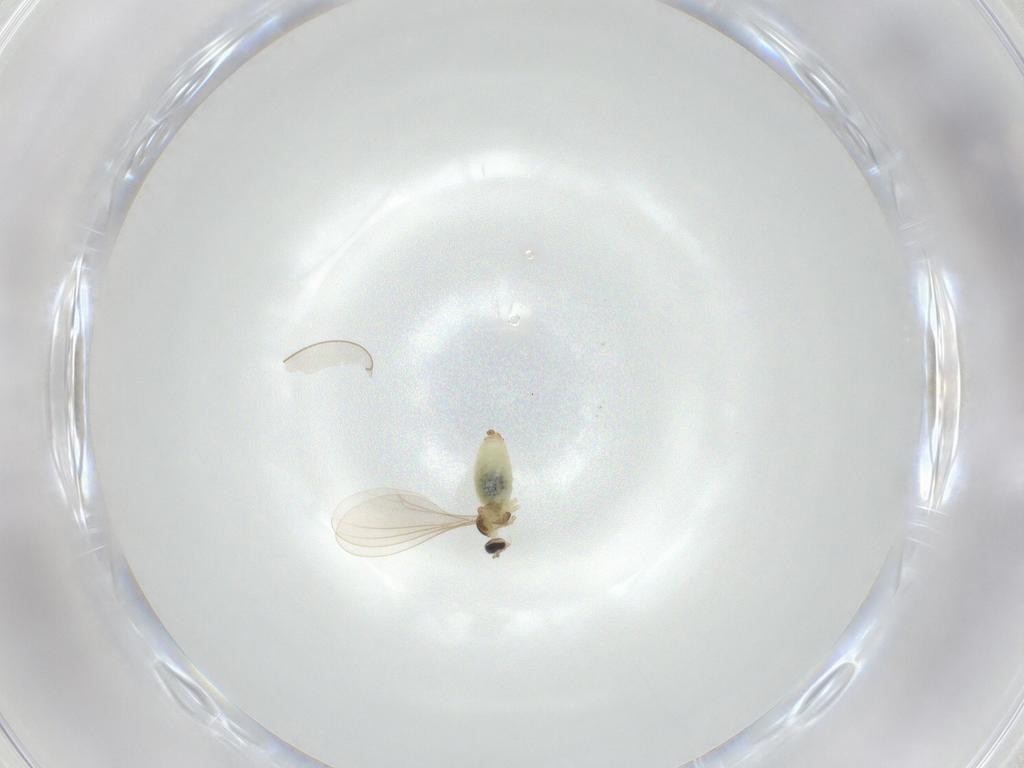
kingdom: Animalia
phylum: Arthropoda
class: Insecta
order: Diptera
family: Cecidomyiidae
